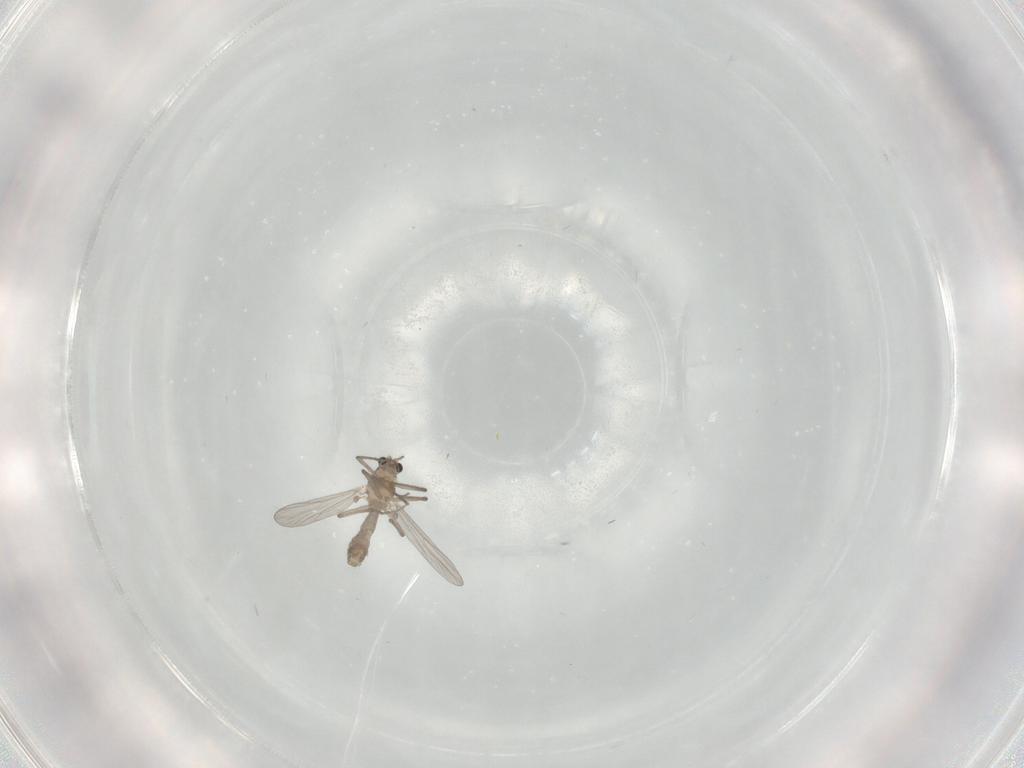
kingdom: Animalia
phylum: Arthropoda
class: Insecta
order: Diptera
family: Chironomidae
